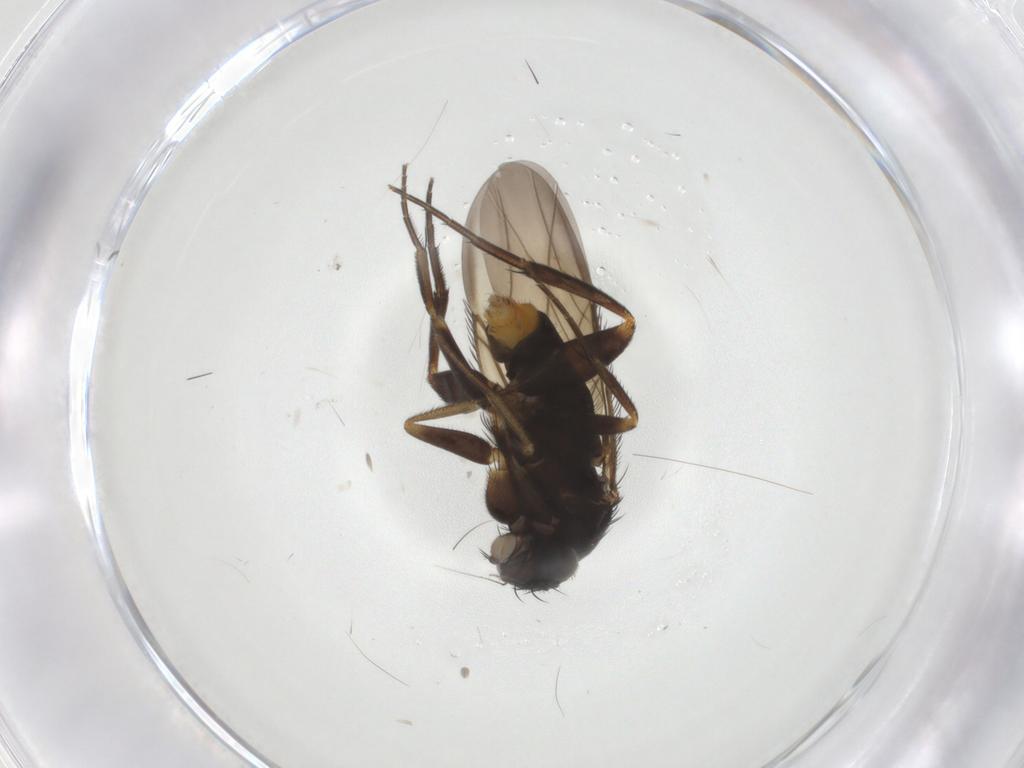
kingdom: Animalia
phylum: Arthropoda
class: Insecta
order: Diptera
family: Phoridae
